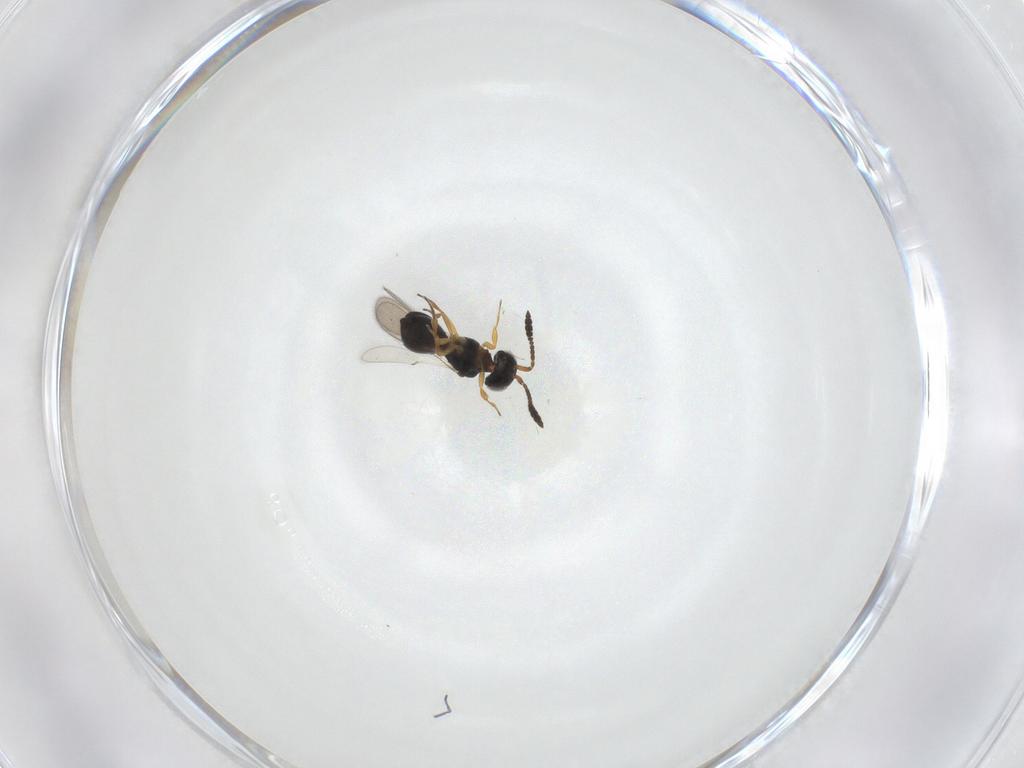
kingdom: Animalia
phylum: Arthropoda
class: Insecta
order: Hymenoptera
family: Scelionidae
